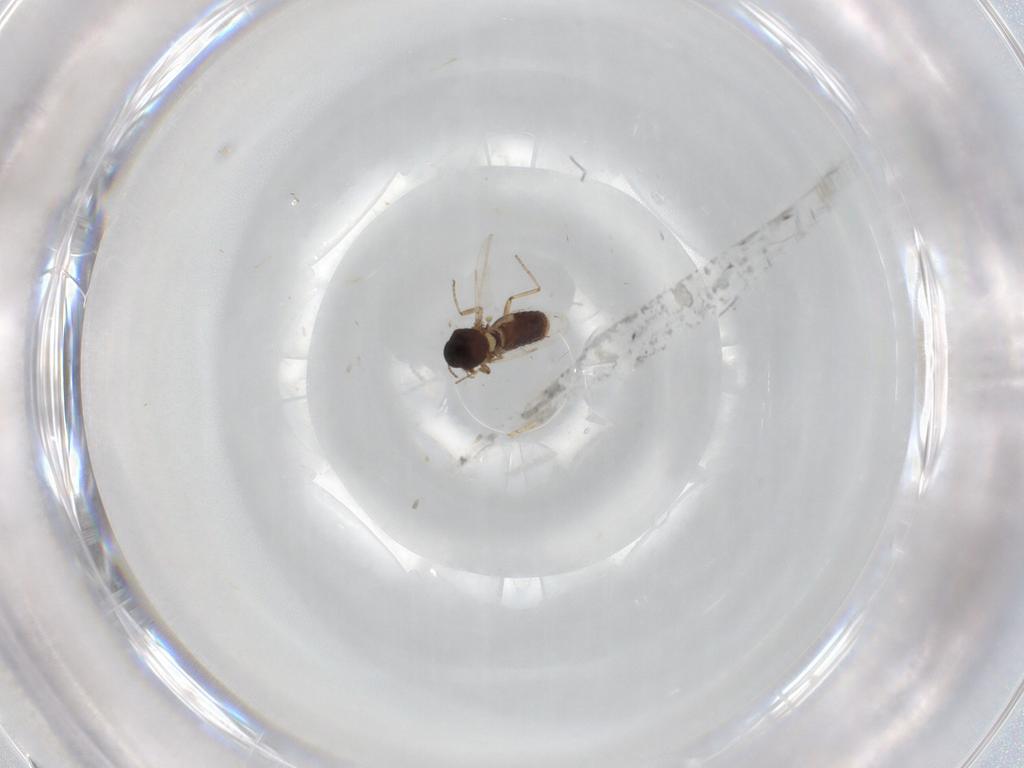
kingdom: Animalia
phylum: Arthropoda
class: Insecta
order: Diptera
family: Ceratopogonidae
